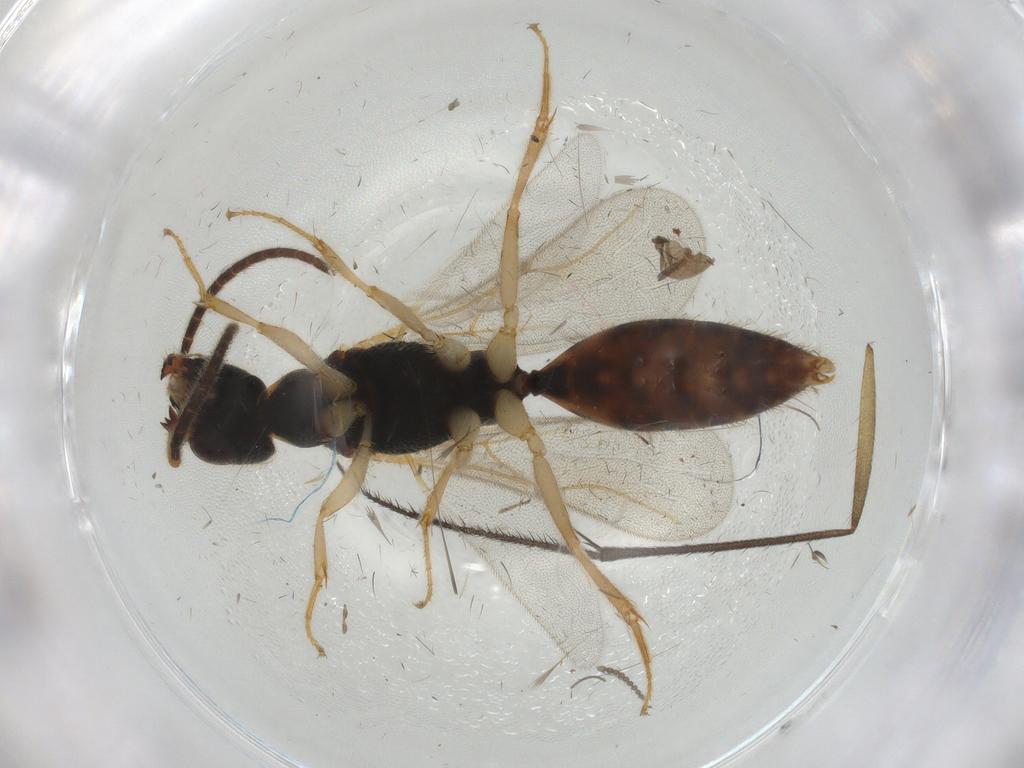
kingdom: Animalia
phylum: Arthropoda
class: Insecta
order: Hymenoptera
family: Bethylidae
